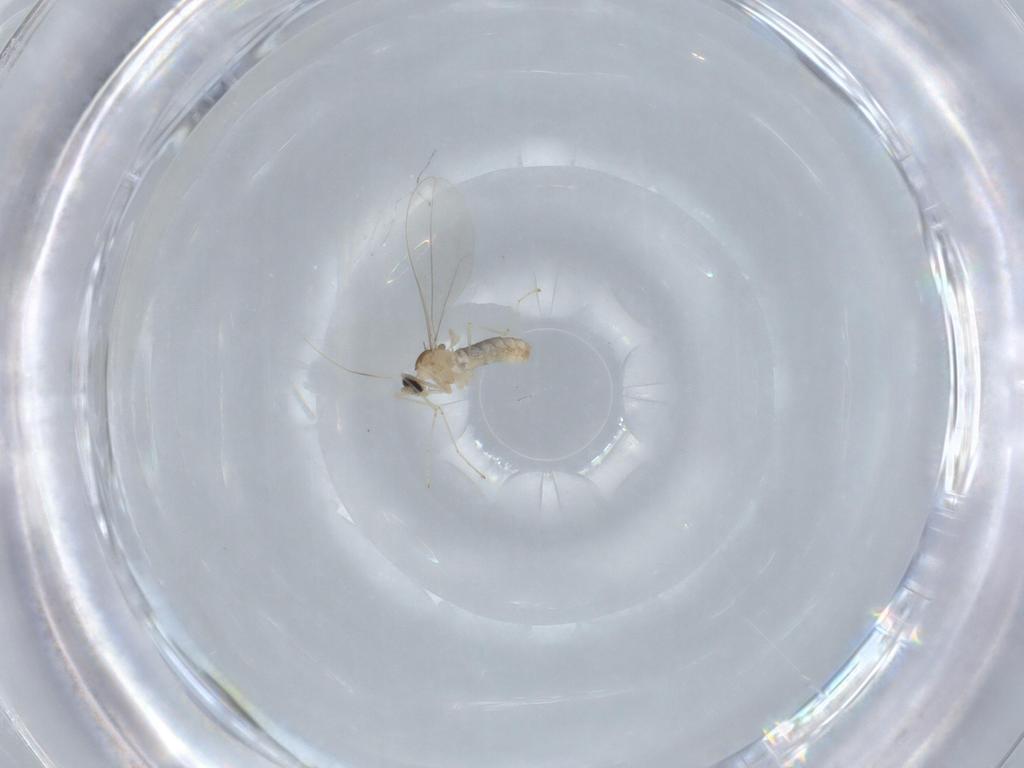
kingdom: Animalia
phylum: Arthropoda
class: Insecta
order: Diptera
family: Cecidomyiidae
